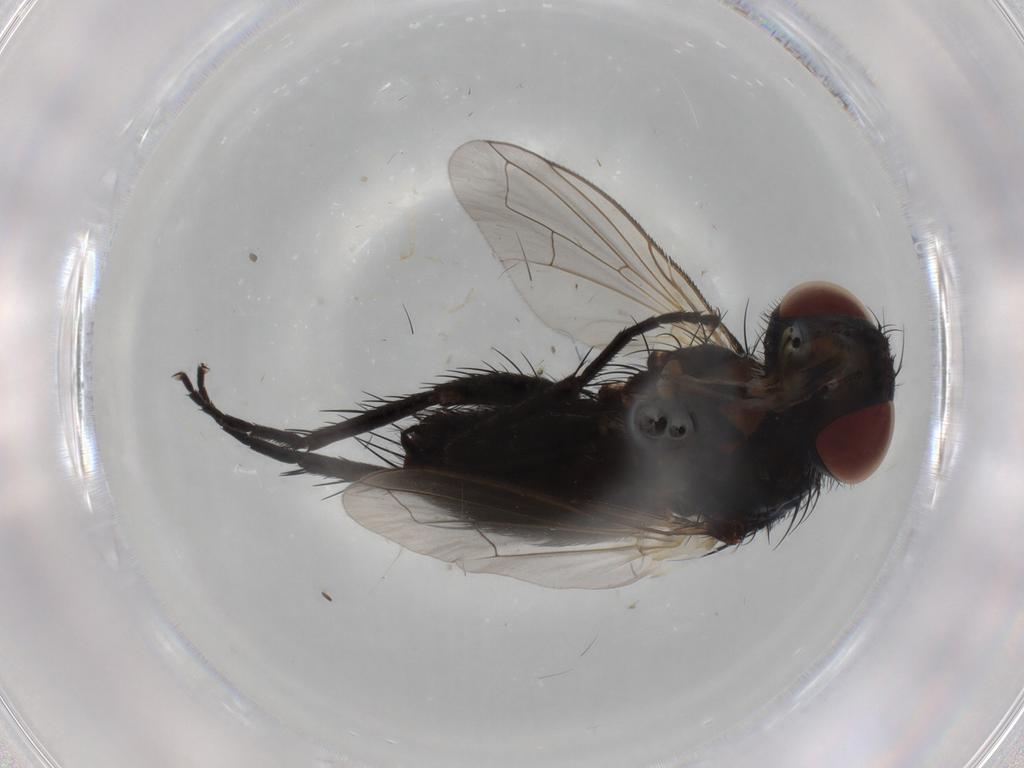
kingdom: Animalia
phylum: Arthropoda
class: Insecta
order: Diptera
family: Tachinidae
